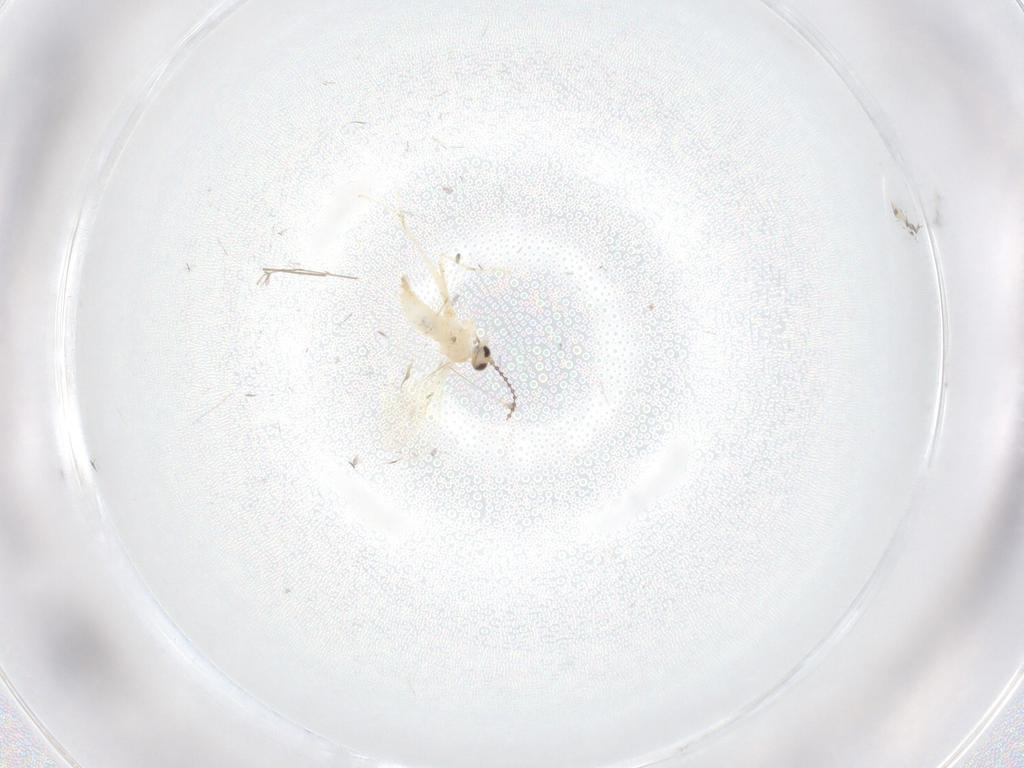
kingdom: Animalia
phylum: Arthropoda
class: Insecta
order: Diptera
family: Cecidomyiidae
